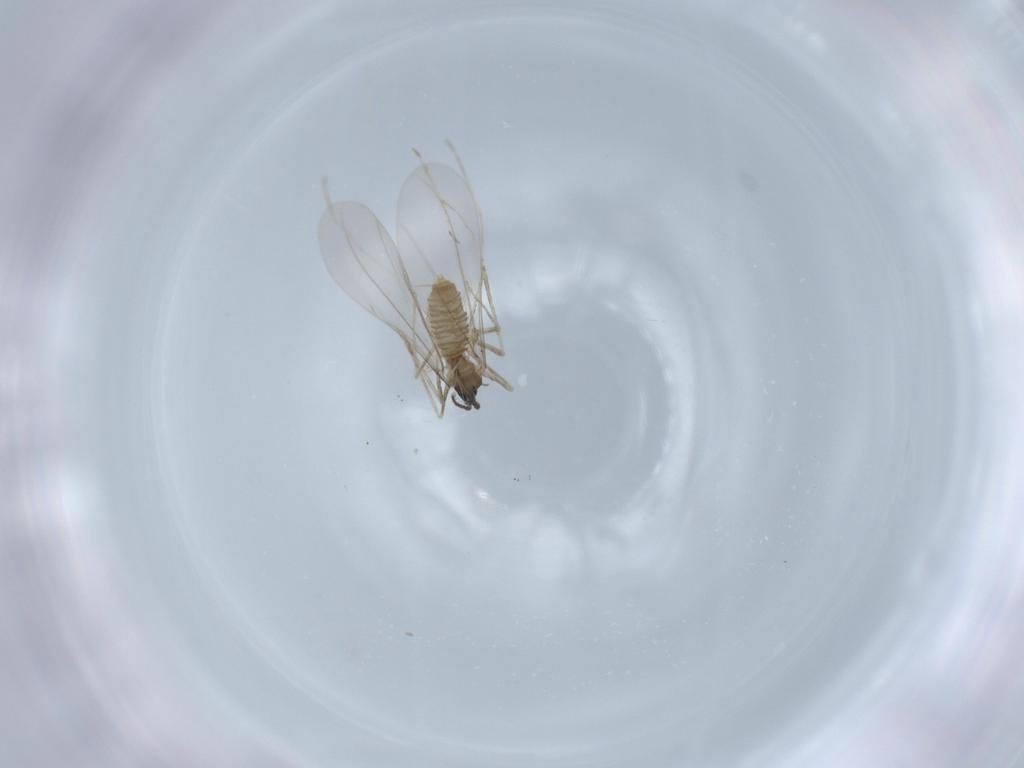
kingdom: Animalia
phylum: Arthropoda
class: Insecta
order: Diptera
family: Cecidomyiidae
